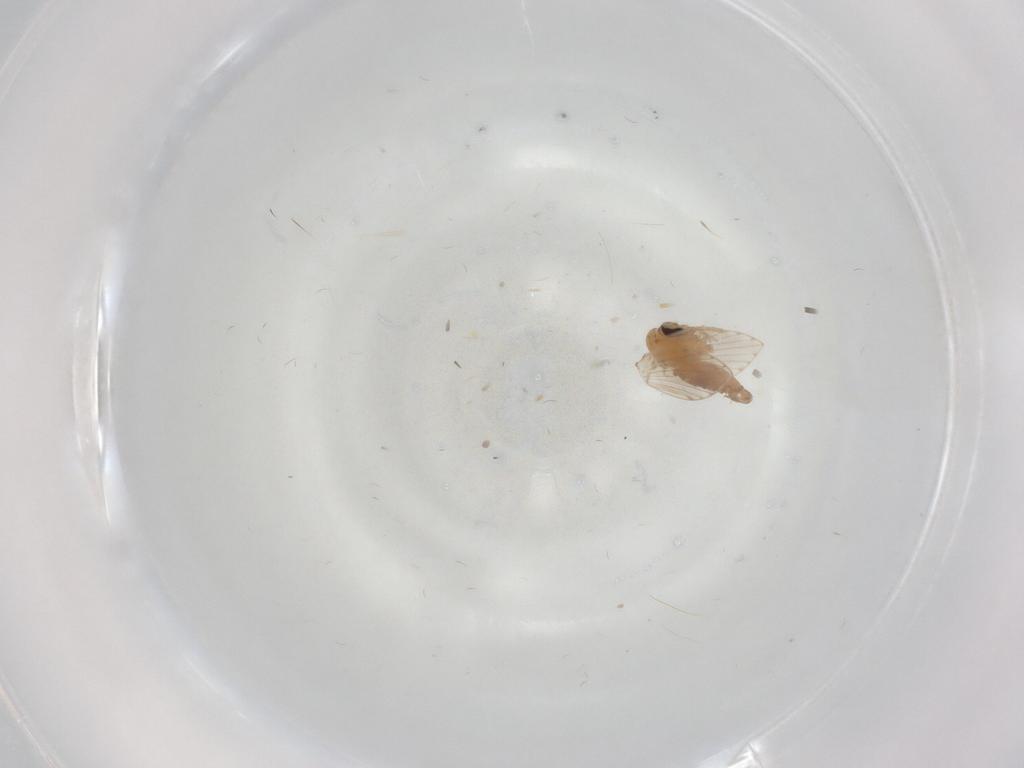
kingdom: Animalia
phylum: Arthropoda
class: Insecta
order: Diptera
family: Psychodidae
